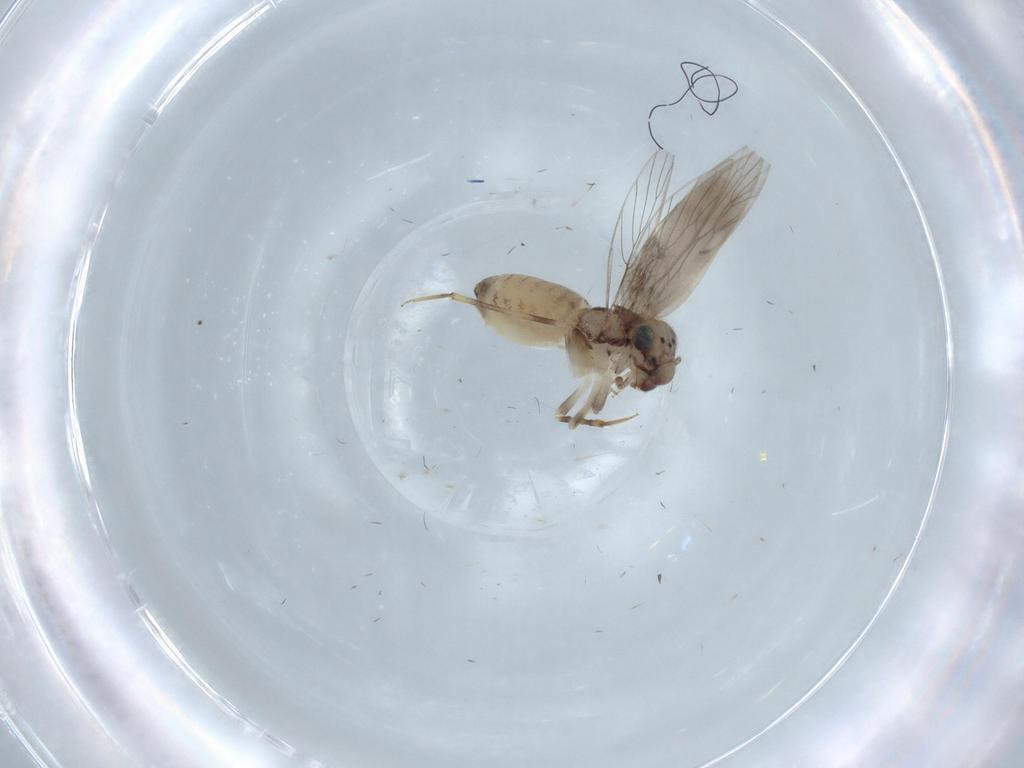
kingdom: Animalia
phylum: Arthropoda
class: Insecta
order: Psocodea
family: Lepidopsocidae
